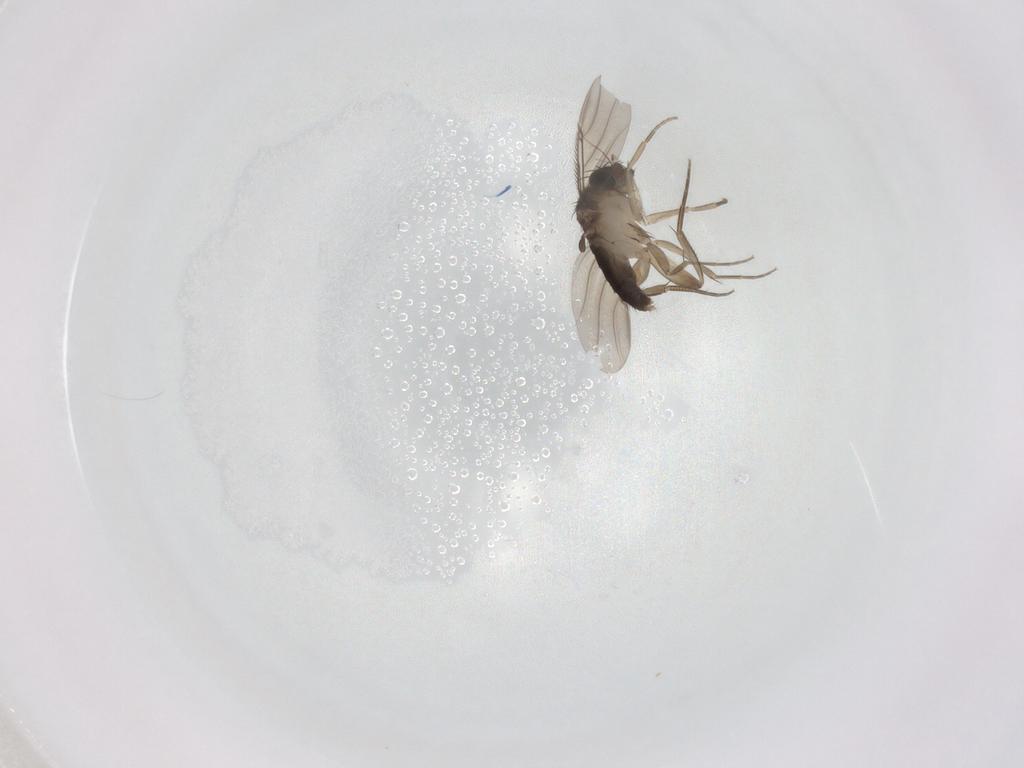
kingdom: Animalia
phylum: Arthropoda
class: Insecta
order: Diptera
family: Phoridae
